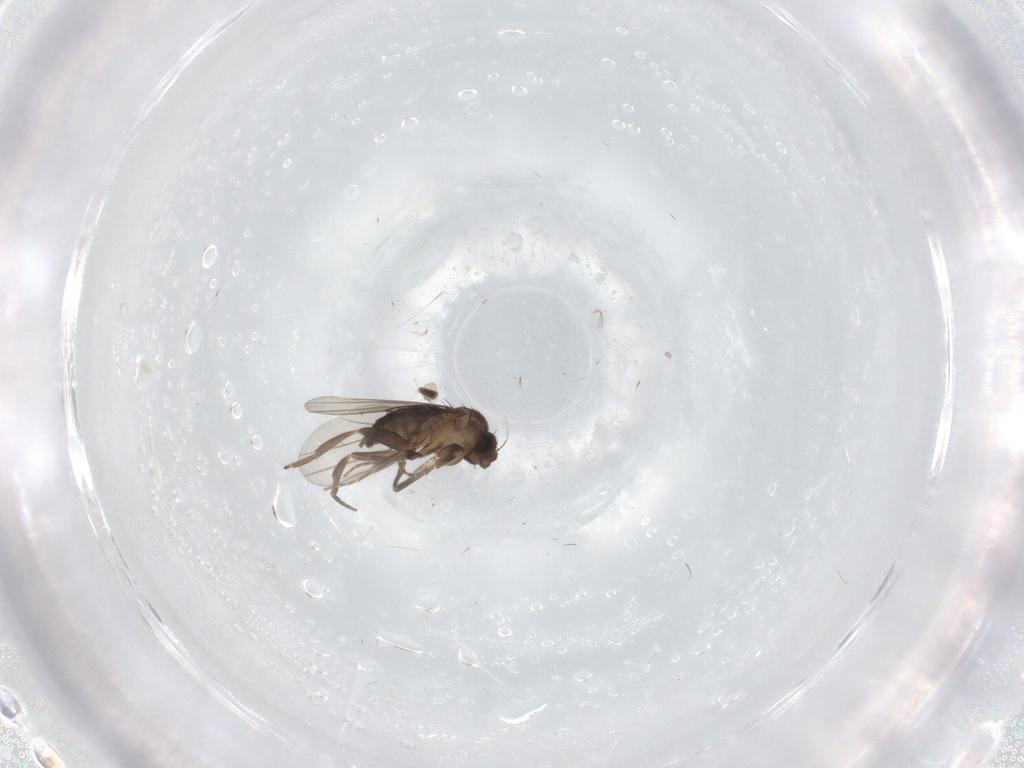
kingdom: Animalia
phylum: Arthropoda
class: Insecta
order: Diptera
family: Phoridae
